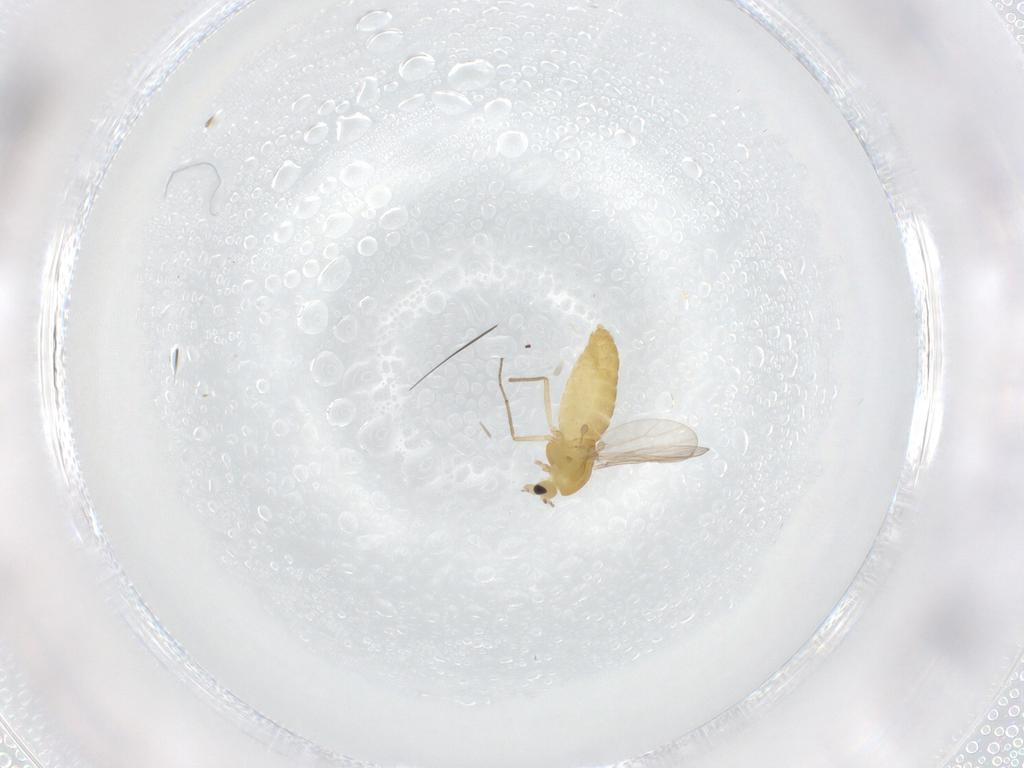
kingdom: Animalia
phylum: Arthropoda
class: Insecta
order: Diptera
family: Chironomidae
